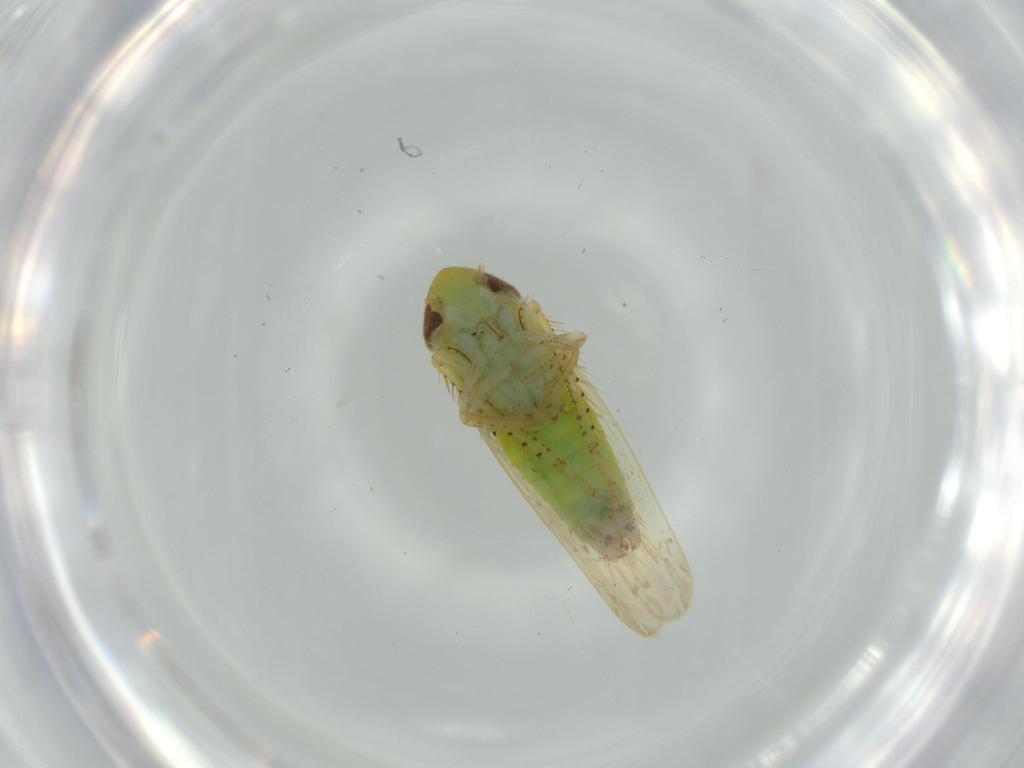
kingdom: Animalia
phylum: Arthropoda
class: Insecta
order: Hemiptera
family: Cicadellidae
